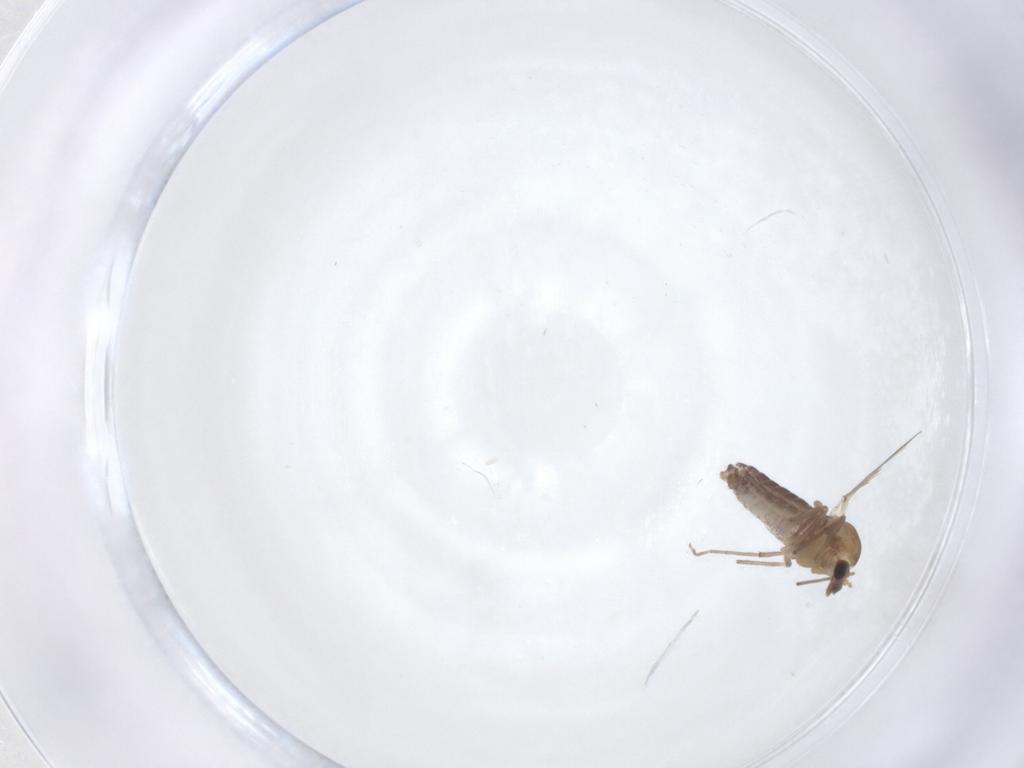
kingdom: Animalia
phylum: Arthropoda
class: Insecta
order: Diptera
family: Chironomidae
